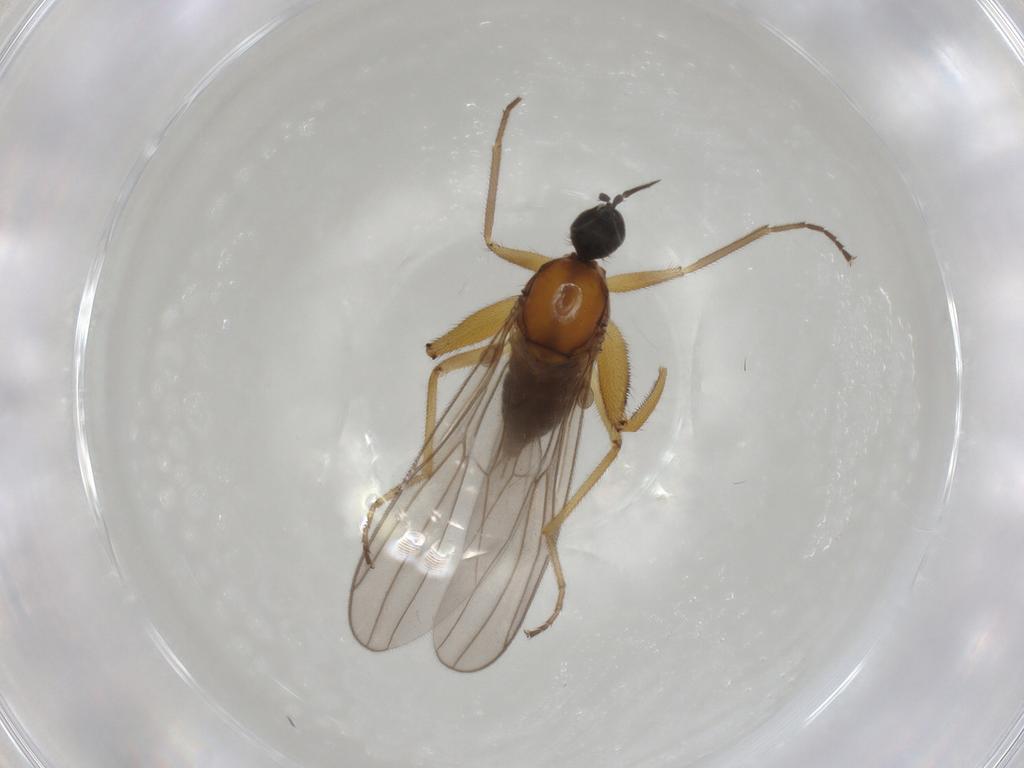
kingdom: Animalia
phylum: Arthropoda
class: Insecta
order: Diptera
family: Hybotidae
